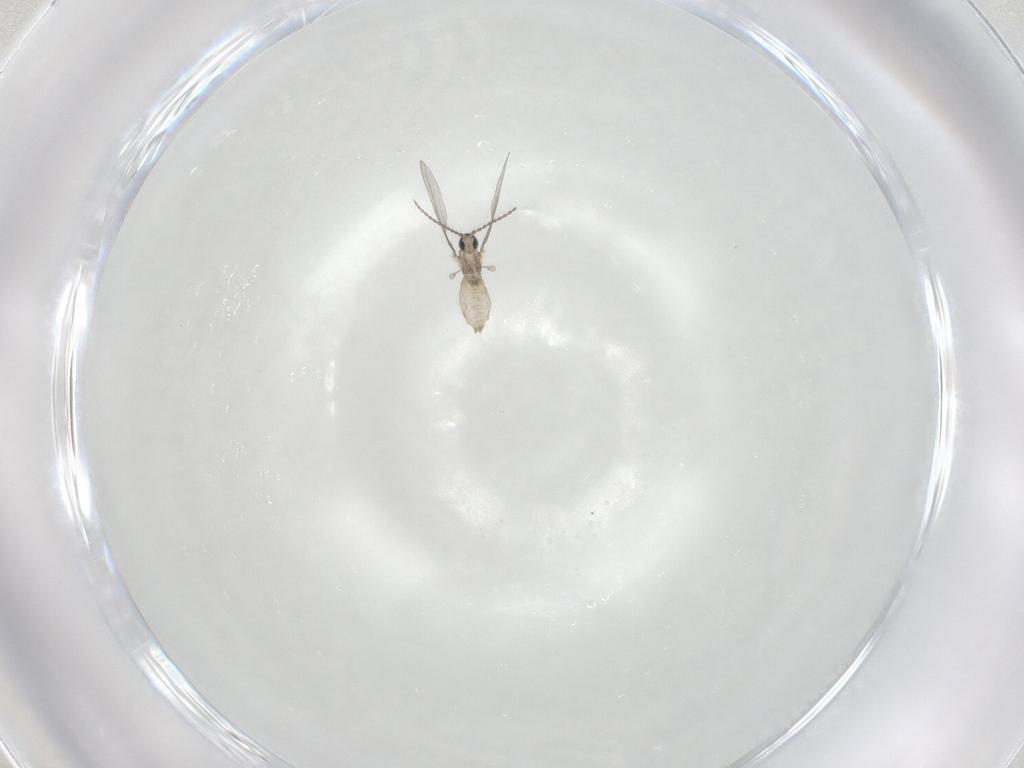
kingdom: Animalia
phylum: Arthropoda
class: Insecta
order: Diptera
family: Cecidomyiidae
